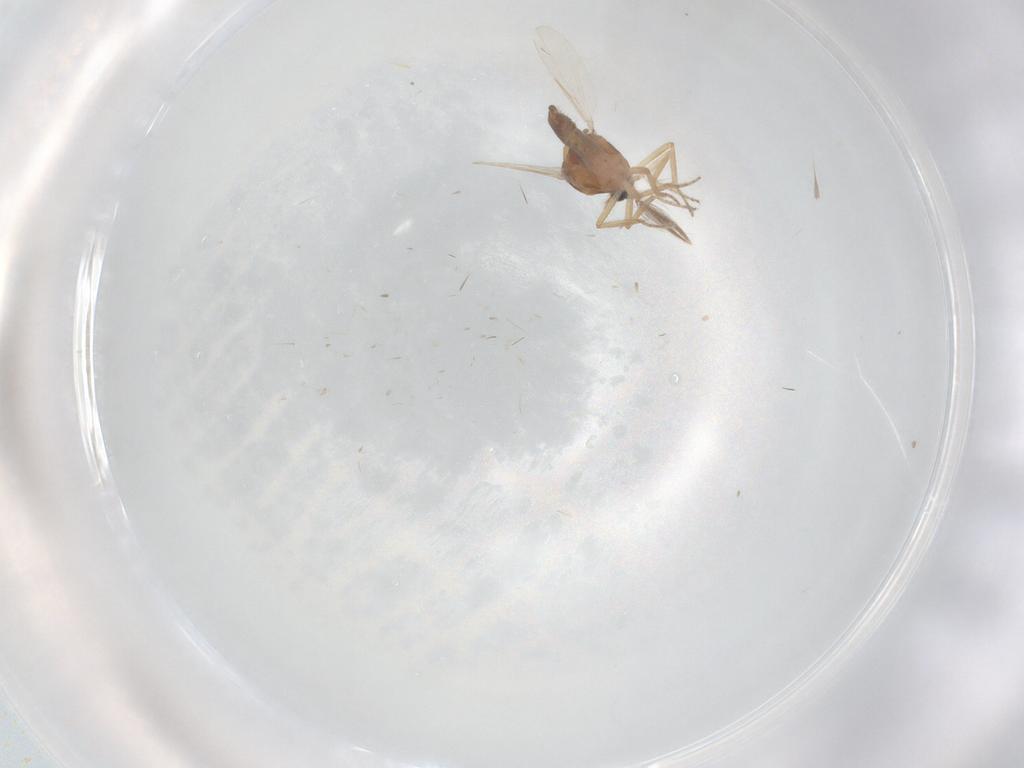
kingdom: Animalia
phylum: Arthropoda
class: Insecta
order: Diptera
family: Ceratopogonidae
